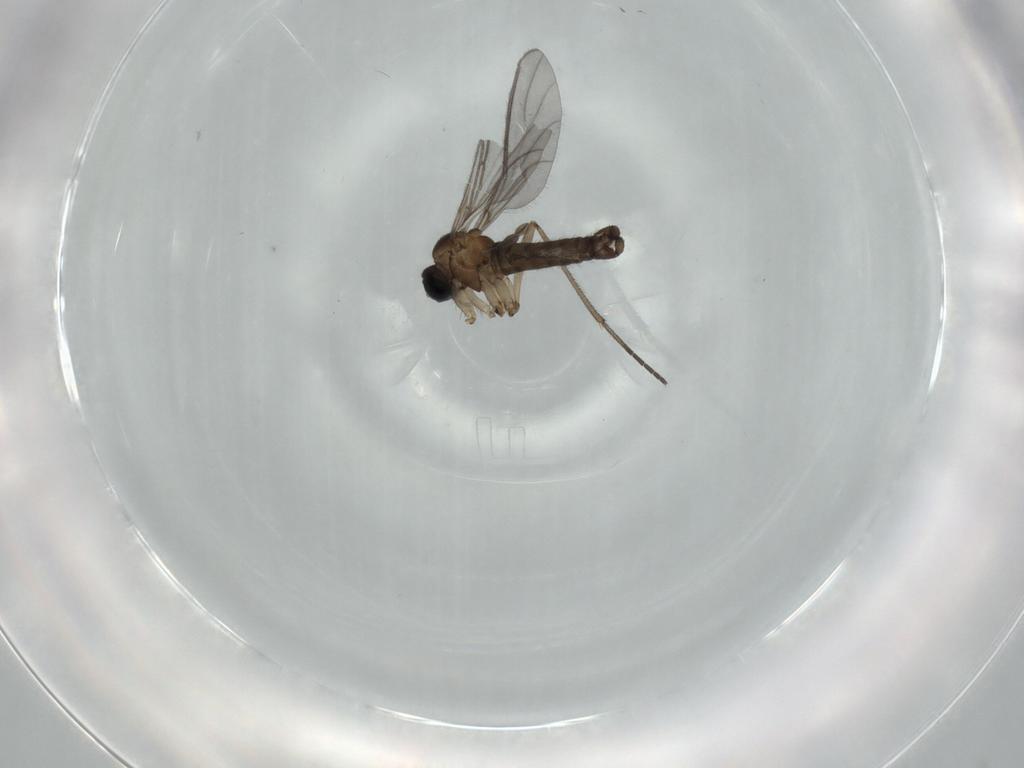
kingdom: Animalia
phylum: Arthropoda
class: Insecta
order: Diptera
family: Sciaridae
